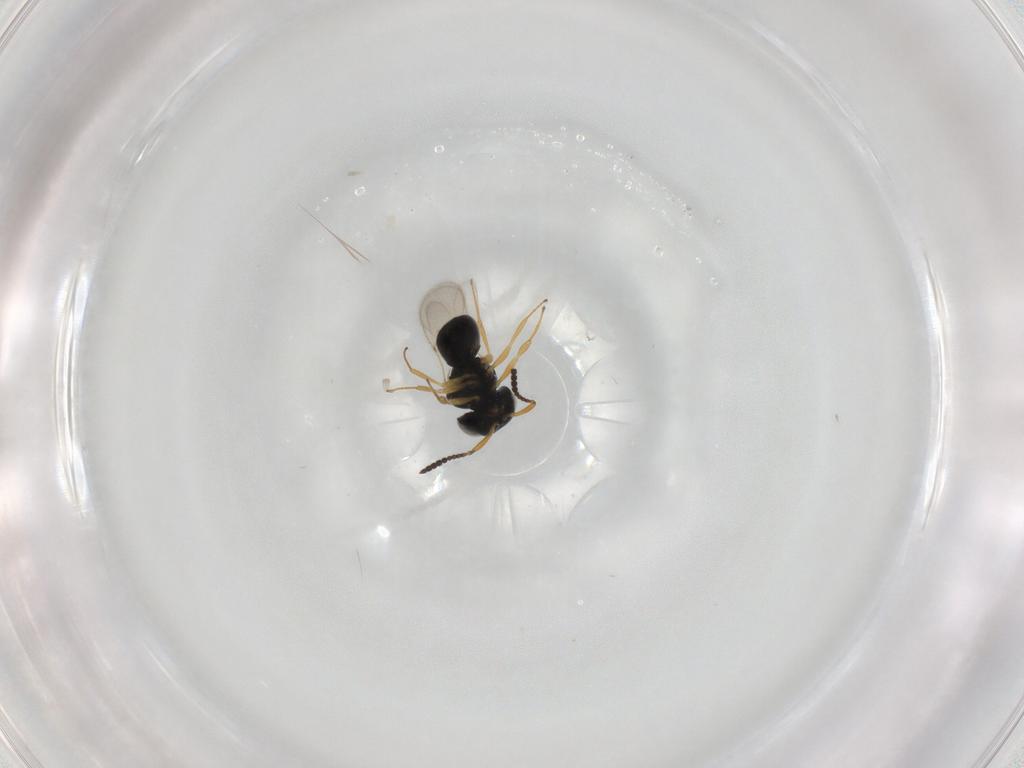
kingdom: Animalia
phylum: Arthropoda
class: Insecta
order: Hymenoptera
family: Scelionidae
